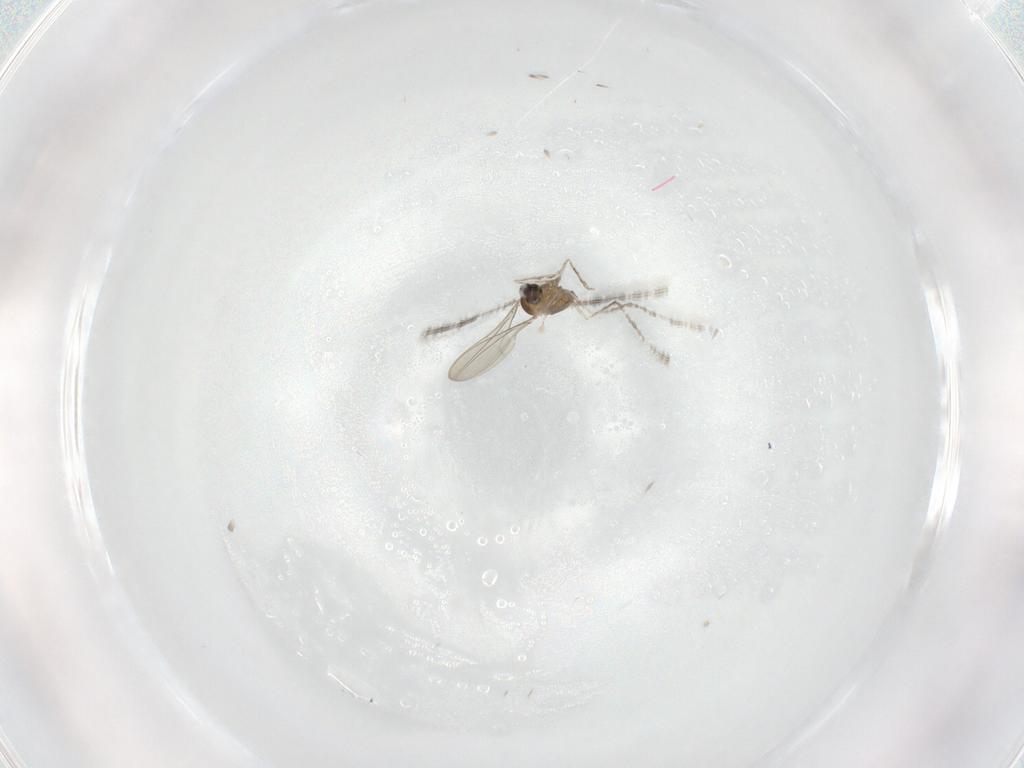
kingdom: Animalia
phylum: Arthropoda
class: Insecta
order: Diptera
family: Cecidomyiidae
